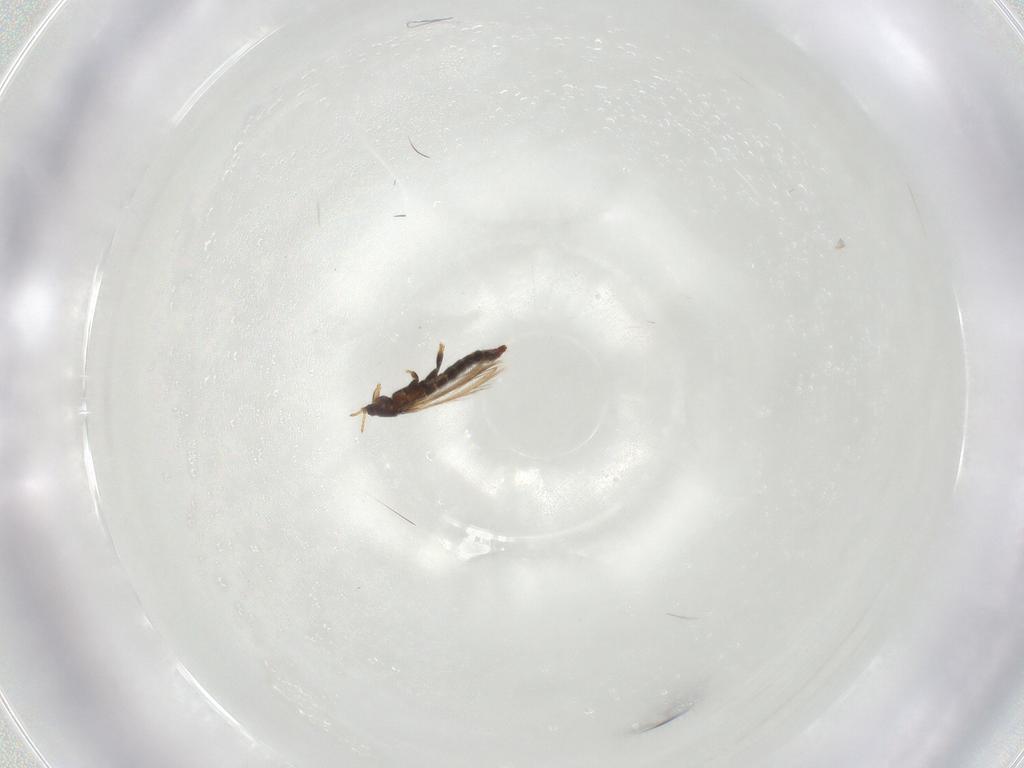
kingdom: Animalia
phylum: Arthropoda
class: Insecta
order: Thysanoptera
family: Thripidae
